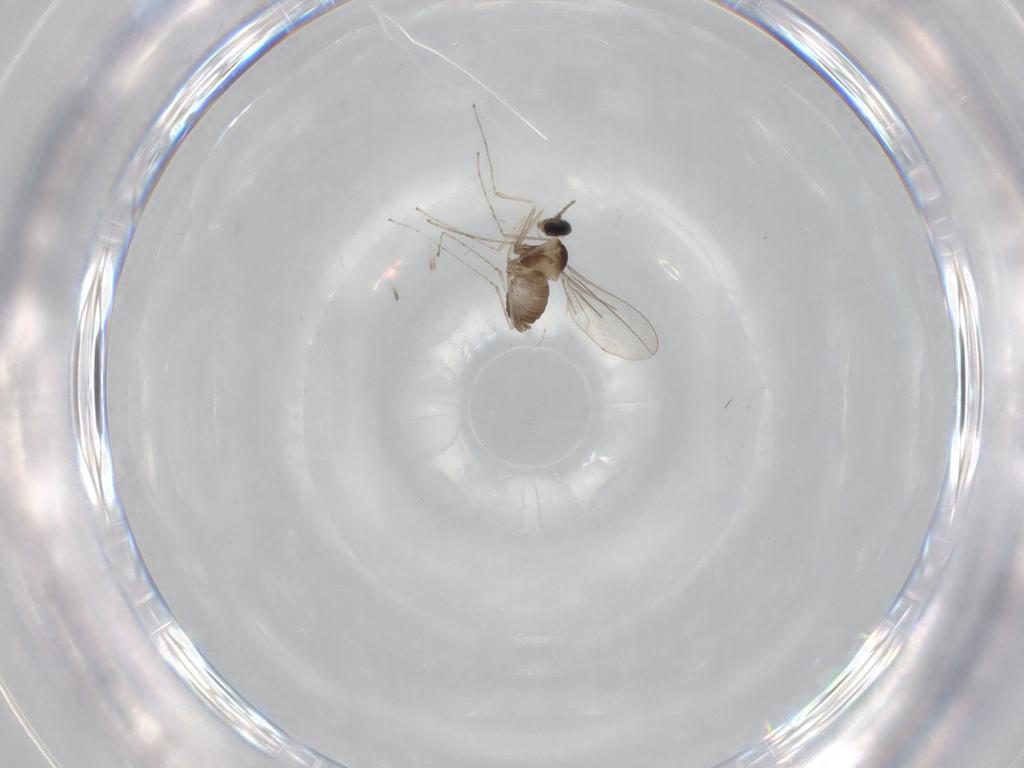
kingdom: Animalia
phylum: Arthropoda
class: Insecta
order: Diptera
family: Cecidomyiidae
